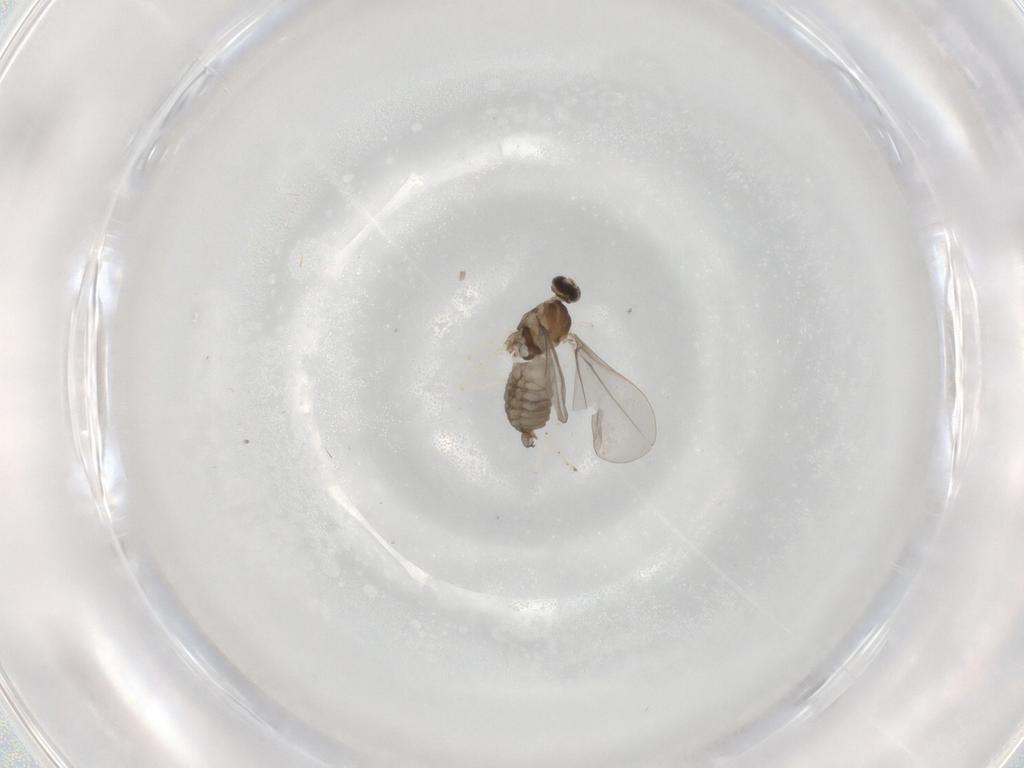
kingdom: Animalia
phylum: Arthropoda
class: Insecta
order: Diptera
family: Cecidomyiidae
